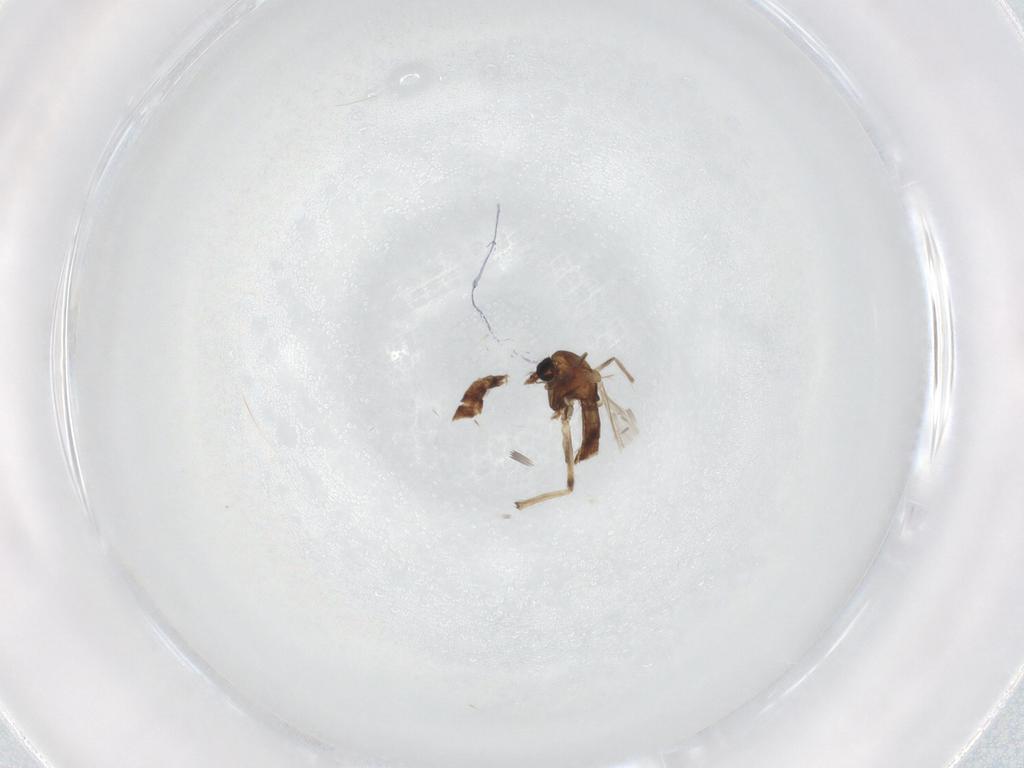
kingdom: Animalia
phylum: Arthropoda
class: Insecta
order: Diptera
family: Chironomidae
